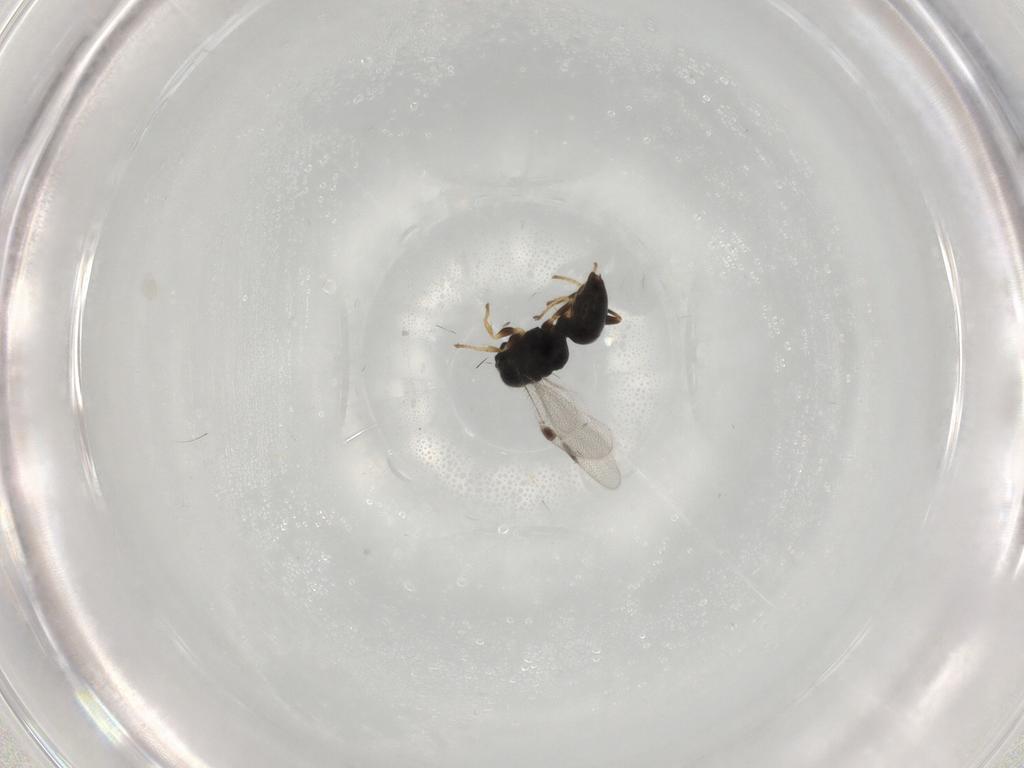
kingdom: Animalia
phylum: Arthropoda
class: Insecta
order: Hymenoptera
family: Dryinidae
